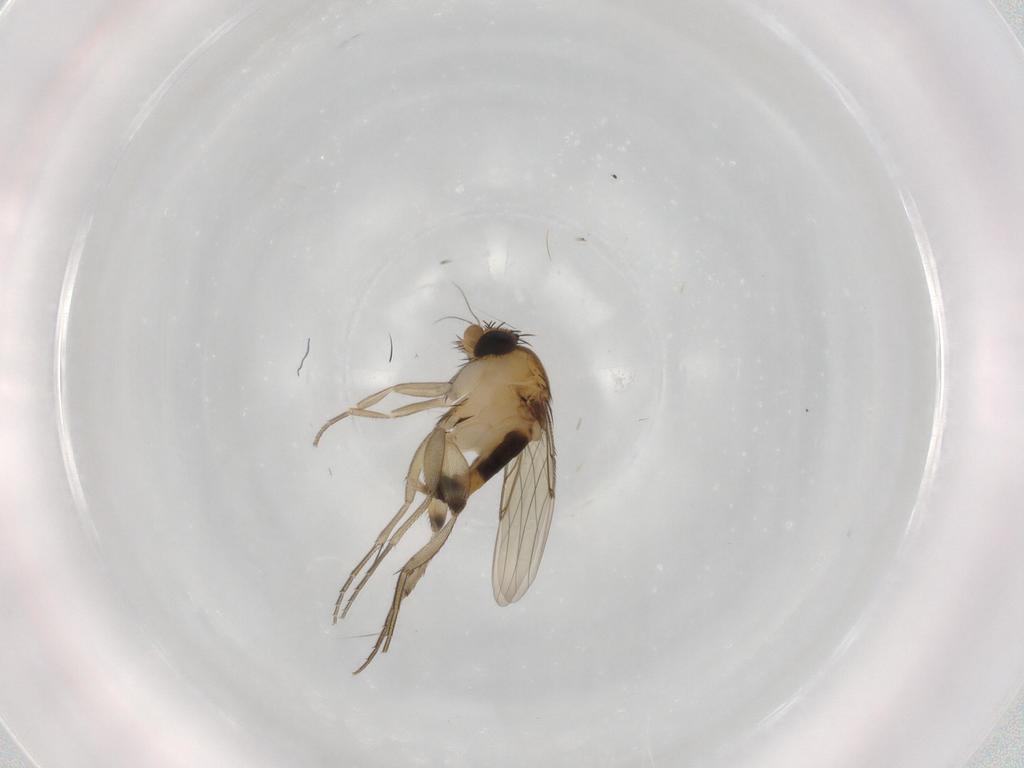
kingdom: Animalia
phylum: Arthropoda
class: Insecta
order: Diptera
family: Phoridae
